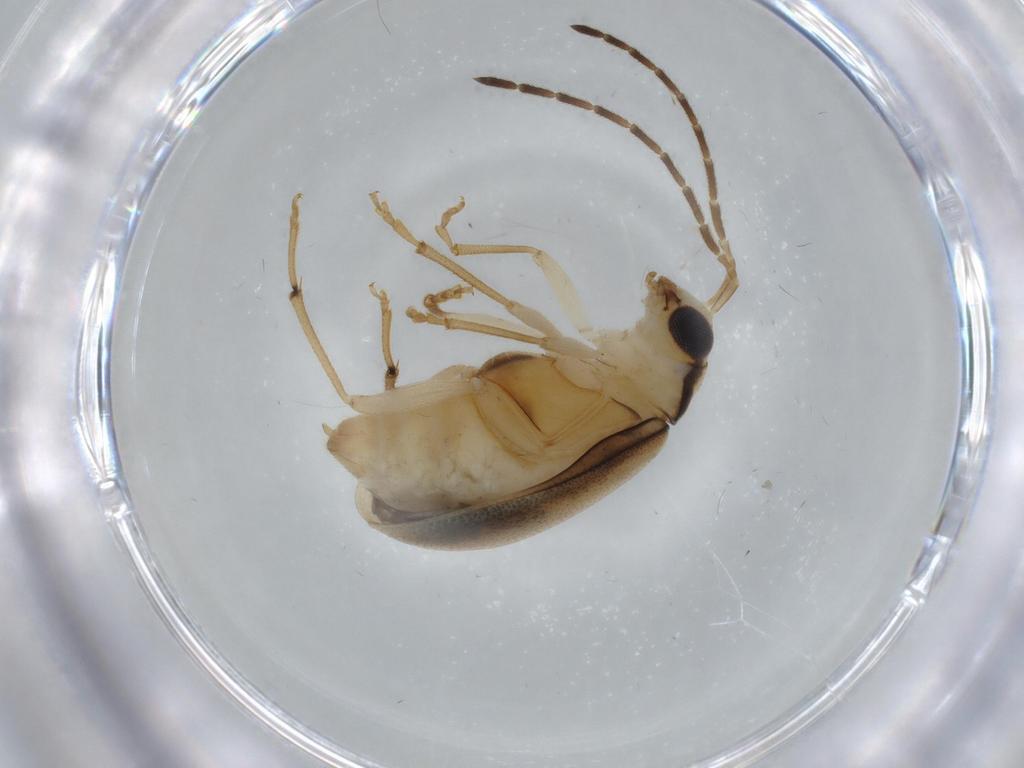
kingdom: Animalia
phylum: Arthropoda
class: Insecta
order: Coleoptera
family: Chrysomelidae
